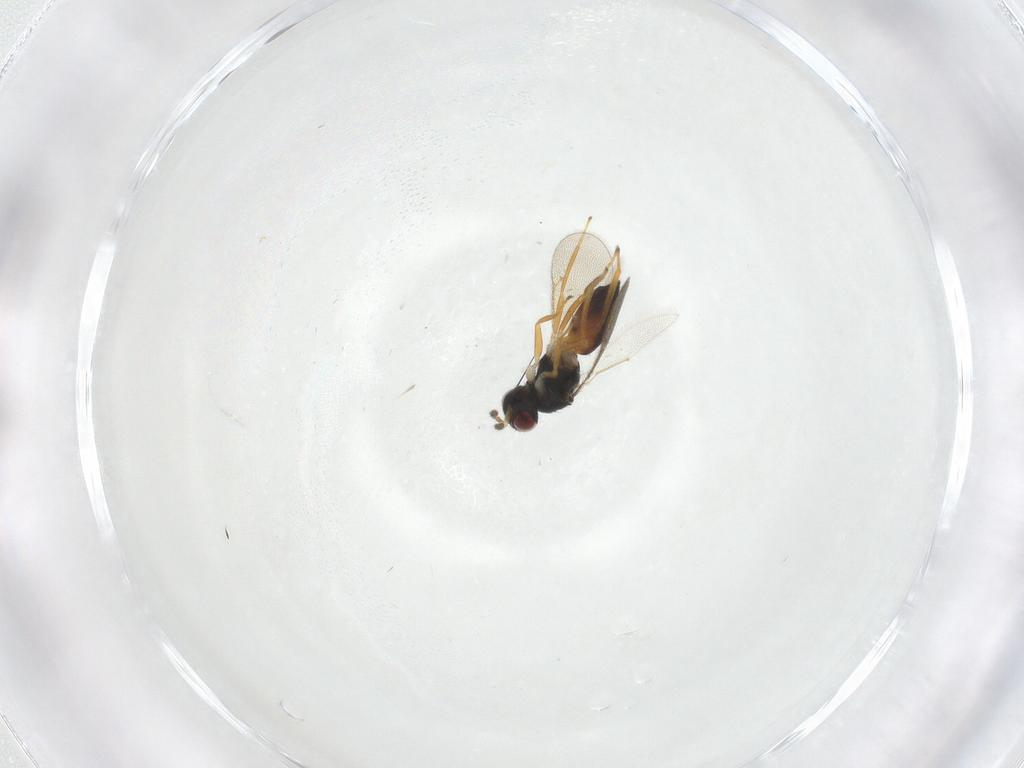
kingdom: Animalia
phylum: Arthropoda
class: Insecta
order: Hymenoptera
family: Eulophidae
